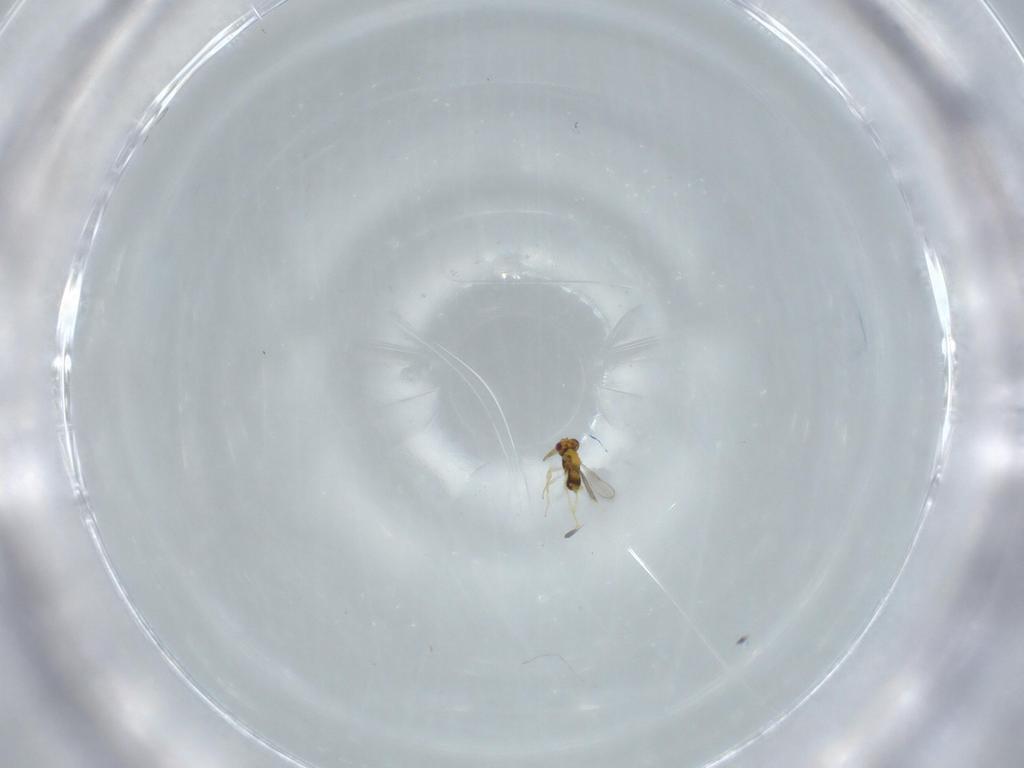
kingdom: Animalia
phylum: Arthropoda
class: Insecta
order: Hymenoptera
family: Aphelinidae
